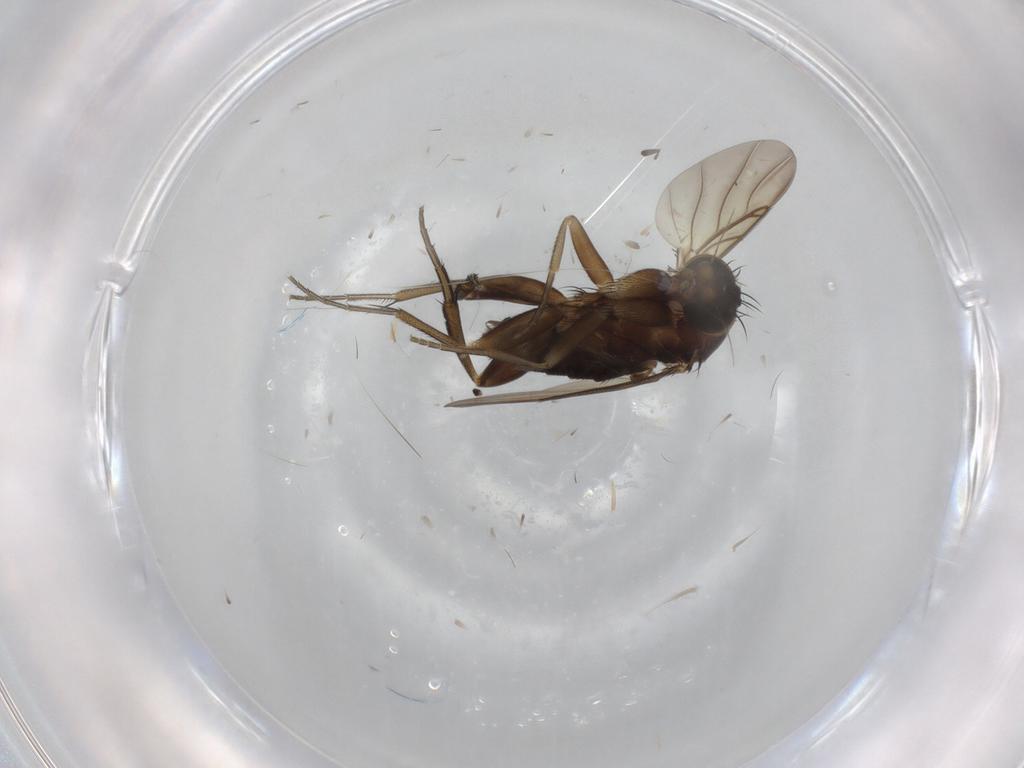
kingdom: Animalia
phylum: Arthropoda
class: Insecta
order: Diptera
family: Phoridae
